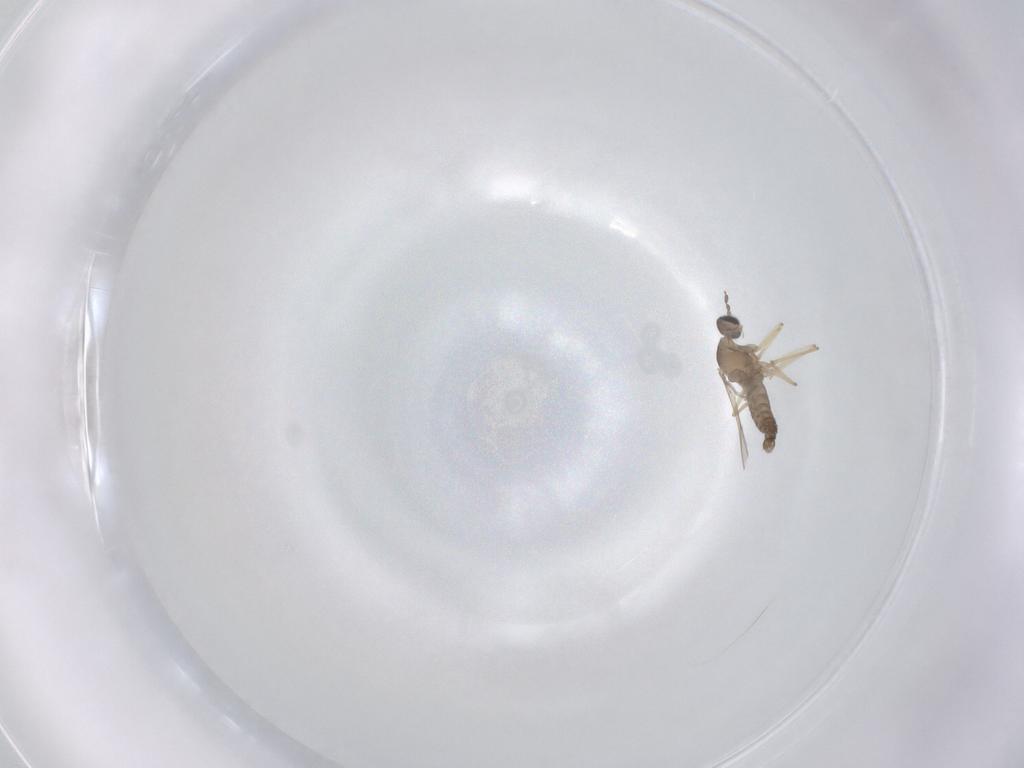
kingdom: Animalia
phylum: Arthropoda
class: Insecta
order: Diptera
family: Cecidomyiidae
